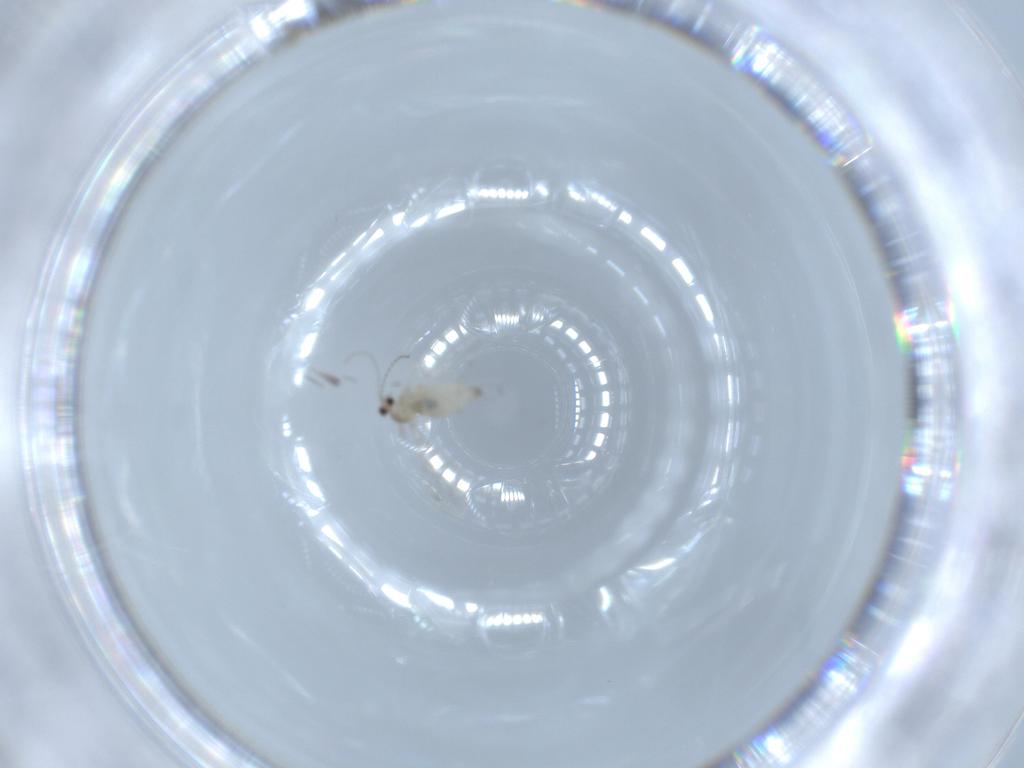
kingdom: Animalia
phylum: Arthropoda
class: Insecta
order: Diptera
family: Cecidomyiidae
